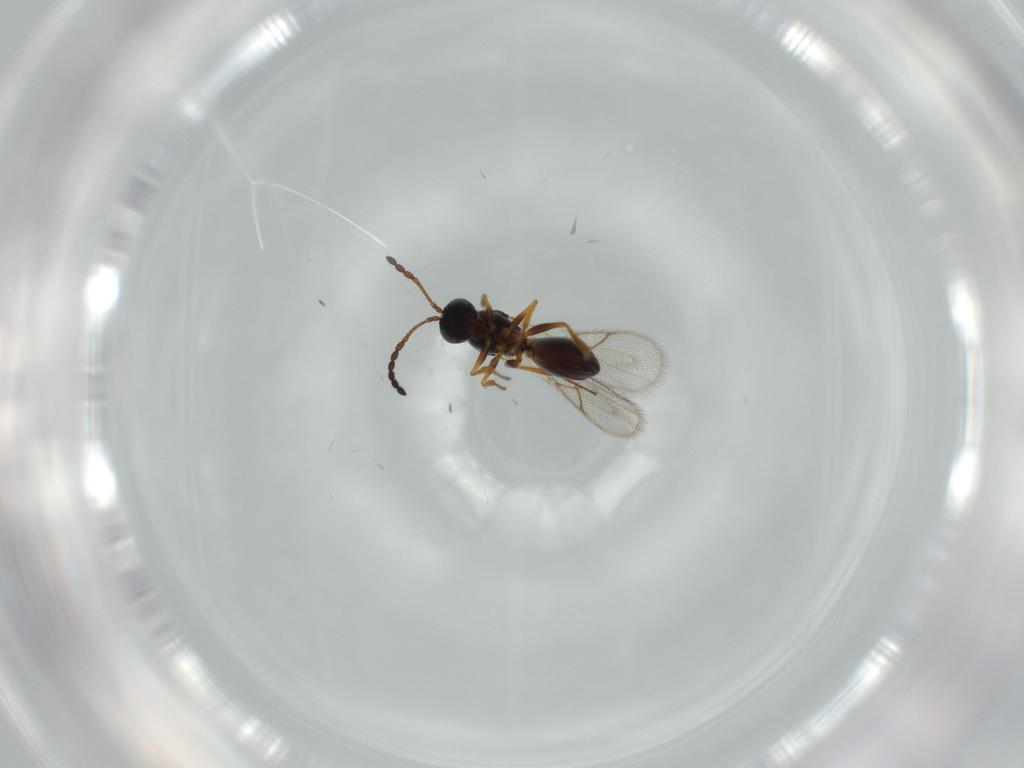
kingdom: Animalia
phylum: Arthropoda
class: Insecta
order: Hymenoptera
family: Figitidae
